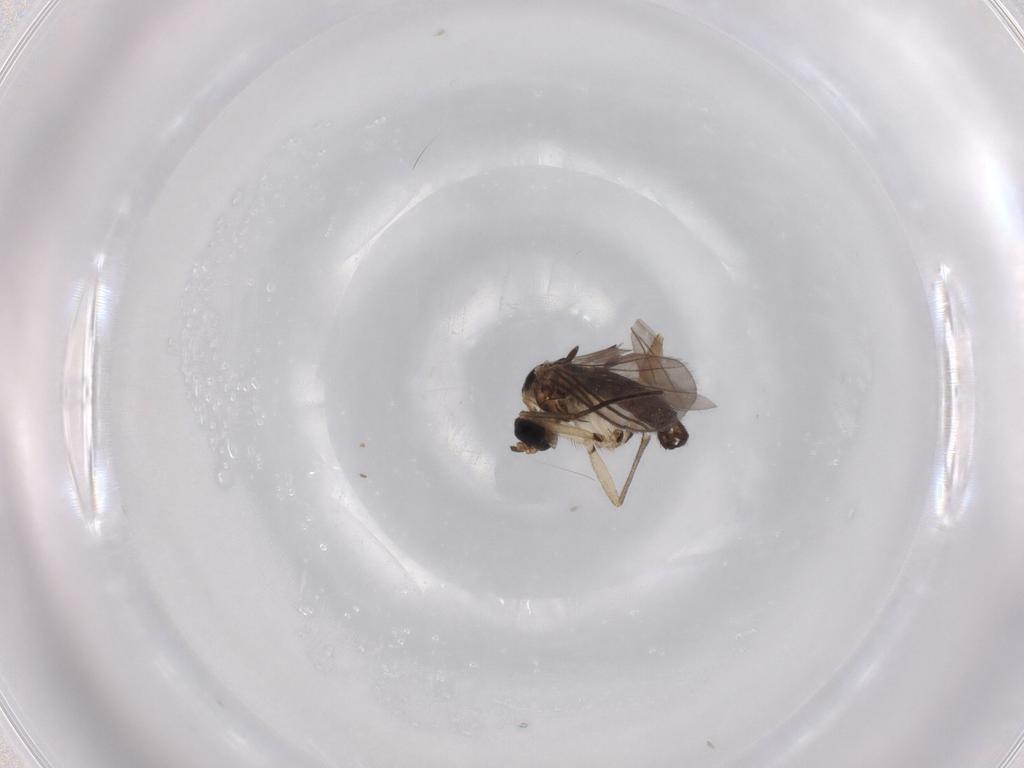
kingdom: Animalia
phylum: Arthropoda
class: Insecta
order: Diptera
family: Sciaridae
